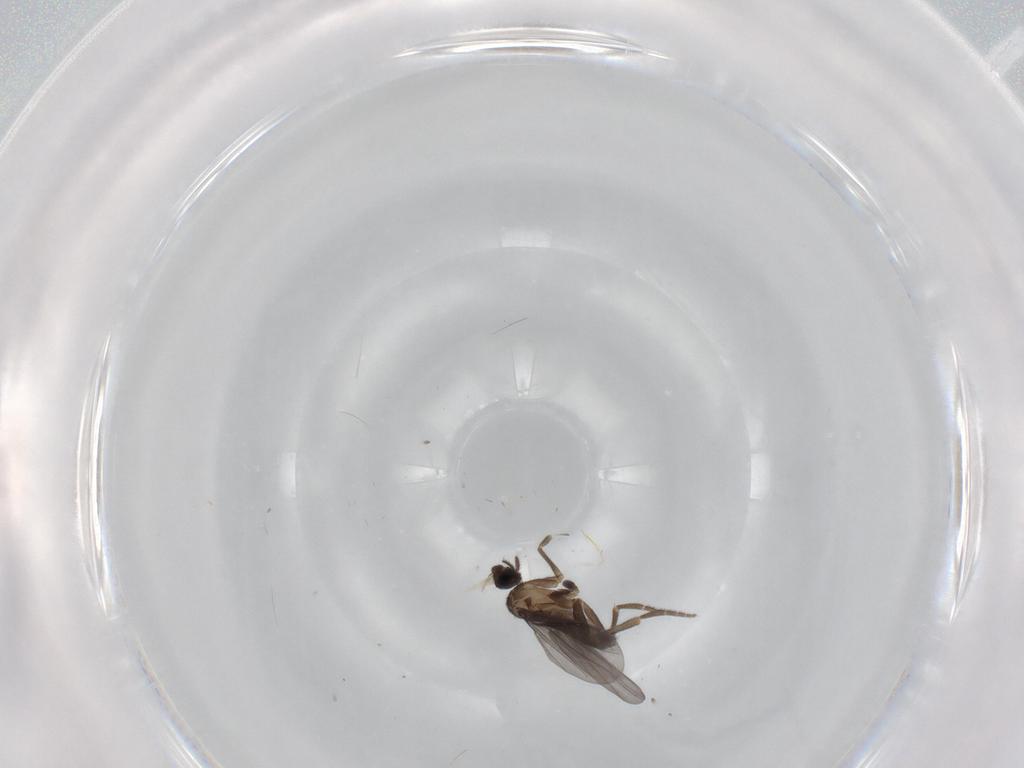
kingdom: Animalia
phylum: Arthropoda
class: Insecta
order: Diptera
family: Phoridae
